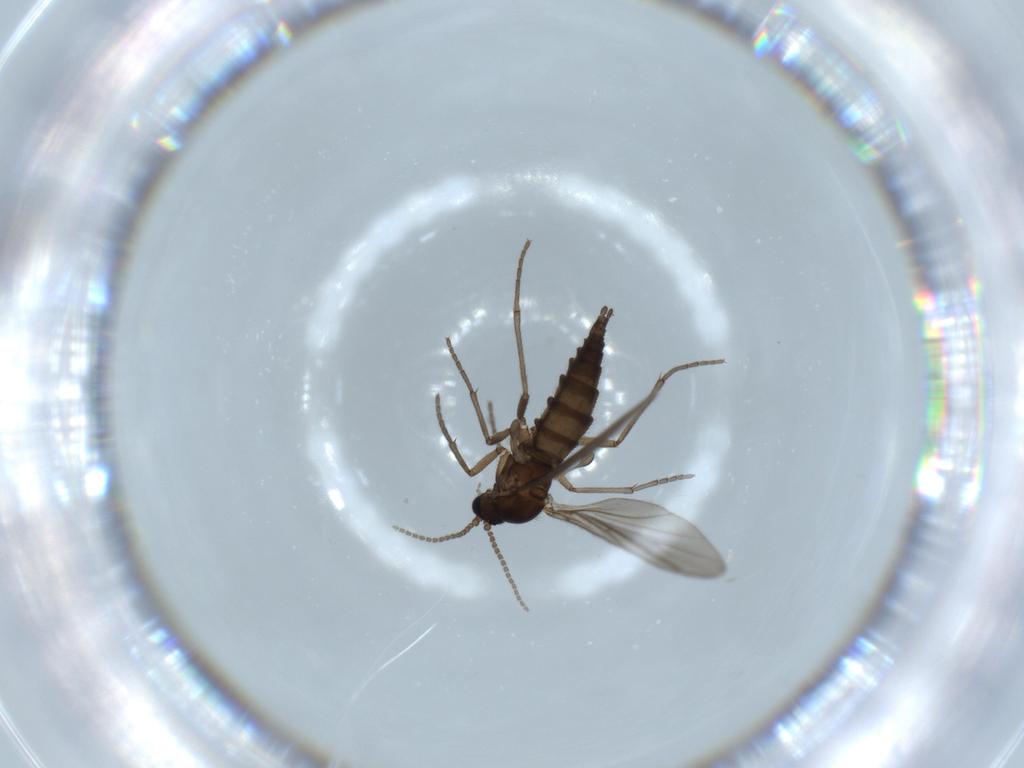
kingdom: Animalia
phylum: Arthropoda
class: Insecta
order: Diptera
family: Sciaridae
